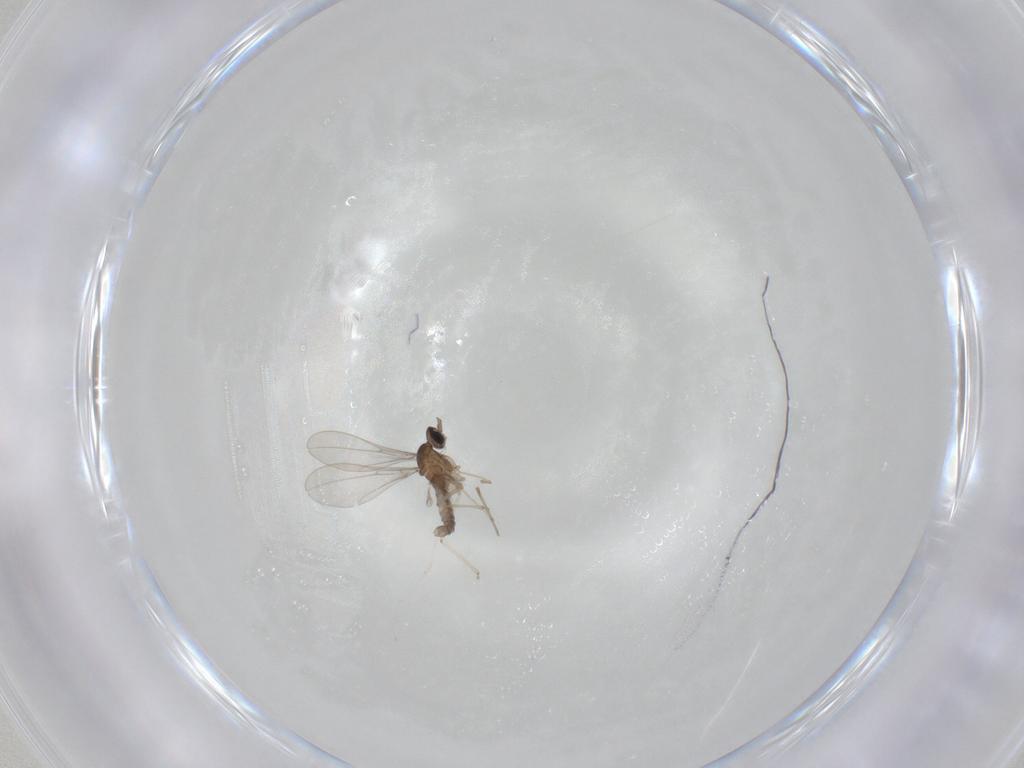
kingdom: Animalia
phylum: Arthropoda
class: Insecta
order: Diptera
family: Cecidomyiidae
